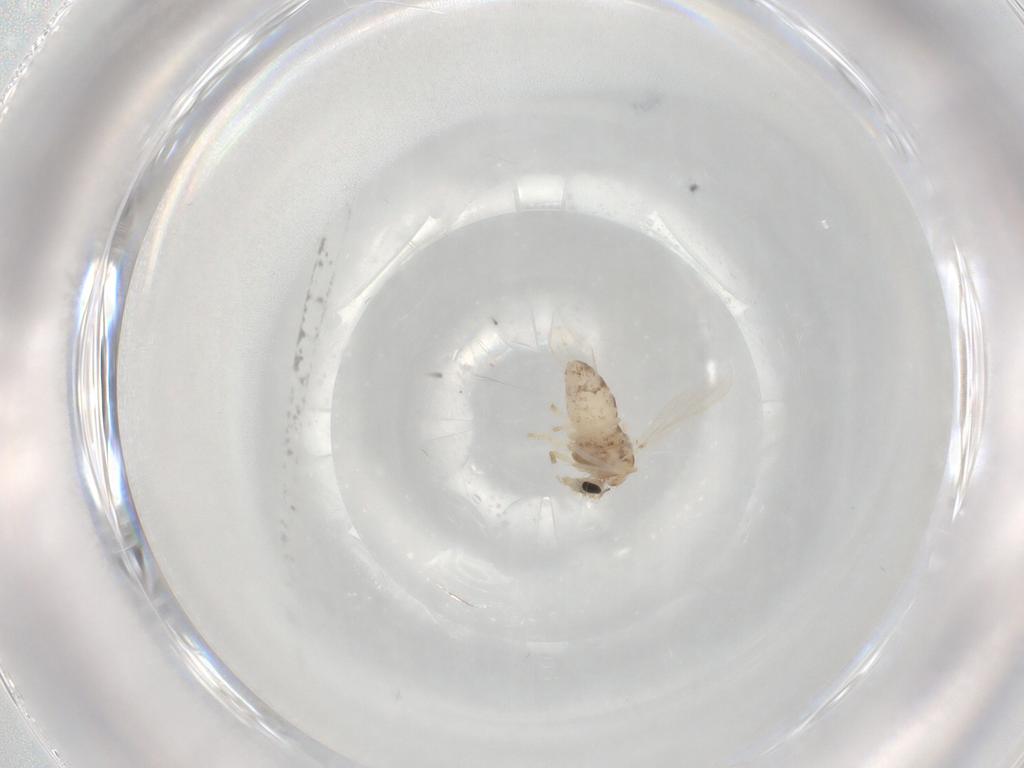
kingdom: Animalia
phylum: Arthropoda
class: Insecta
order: Diptera
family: Chironomidae
